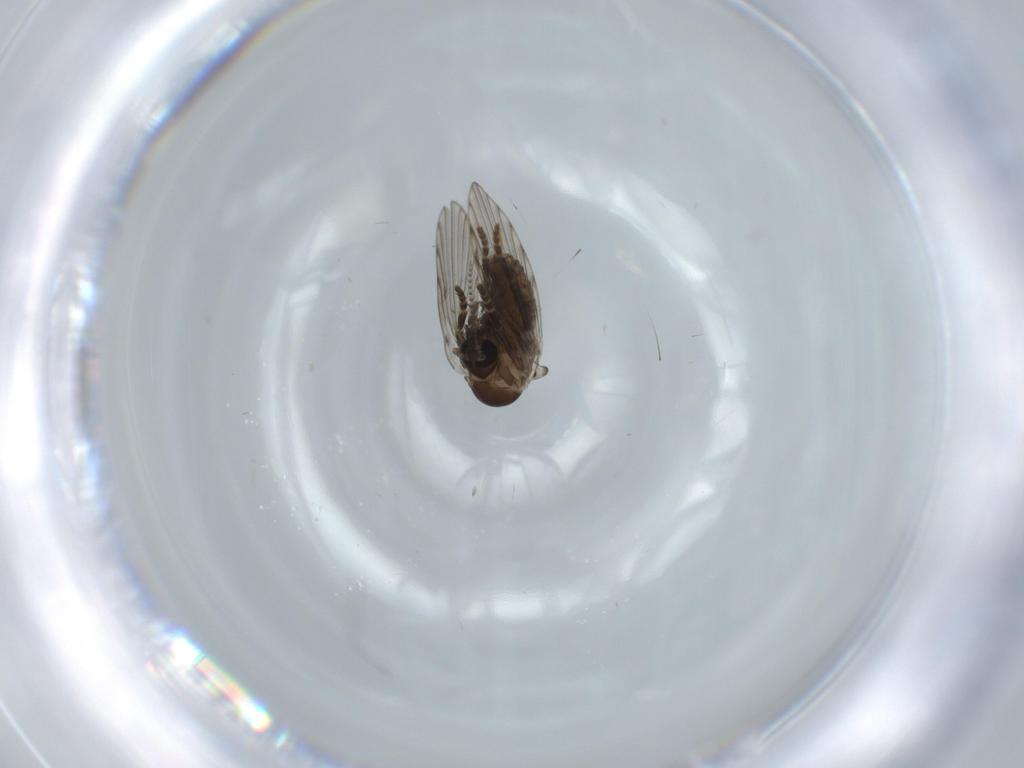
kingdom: Animalia
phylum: Arthropoda
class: Insecta
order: Diptera
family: Psychodidae
